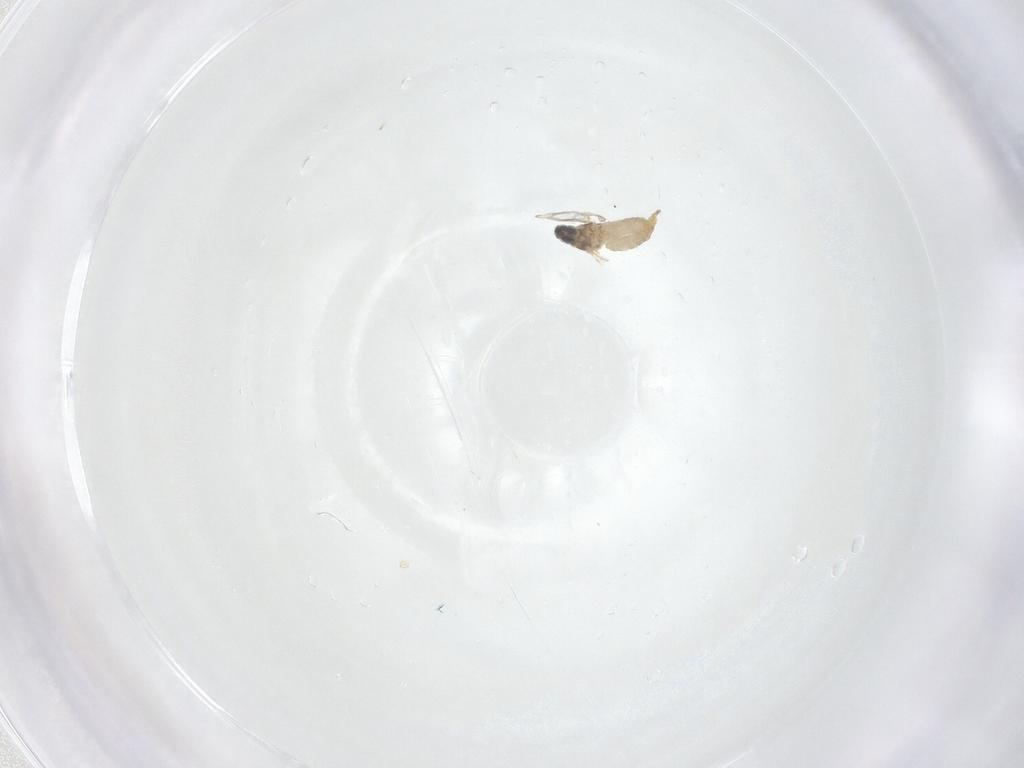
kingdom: Animalia
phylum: Arthropoda
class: Insecta
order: Diptera
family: Cecidomyiidae
